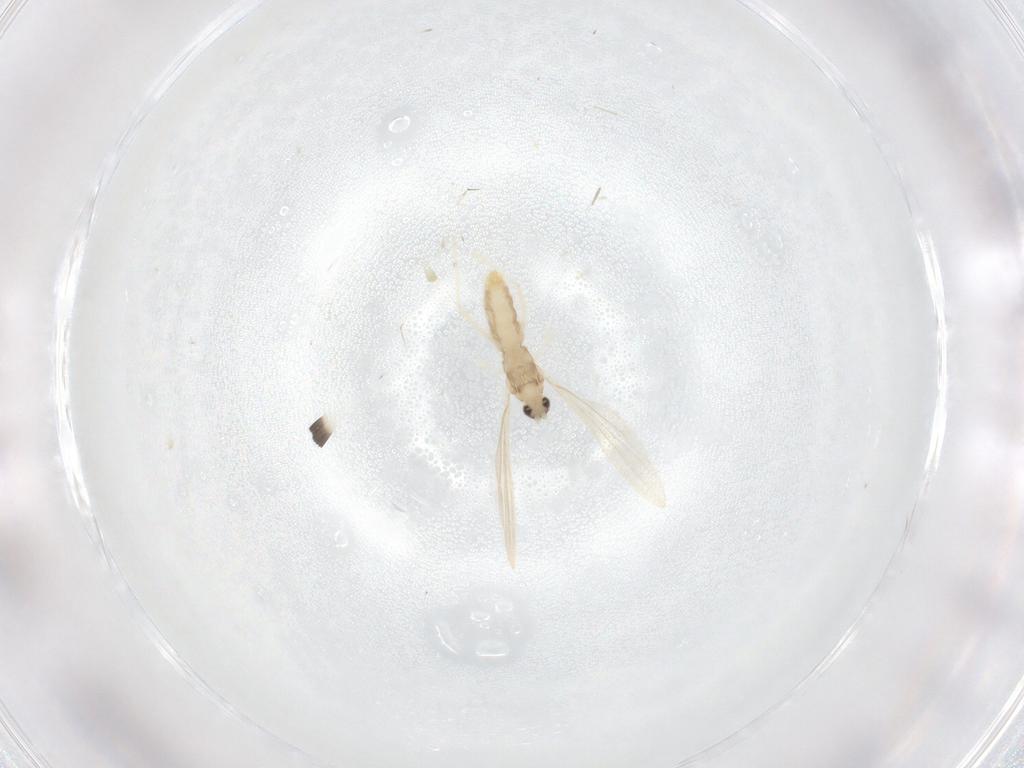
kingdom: Animalia
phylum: Arthropoda
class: Insecta
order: Diptera
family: Cecidomyiidae
